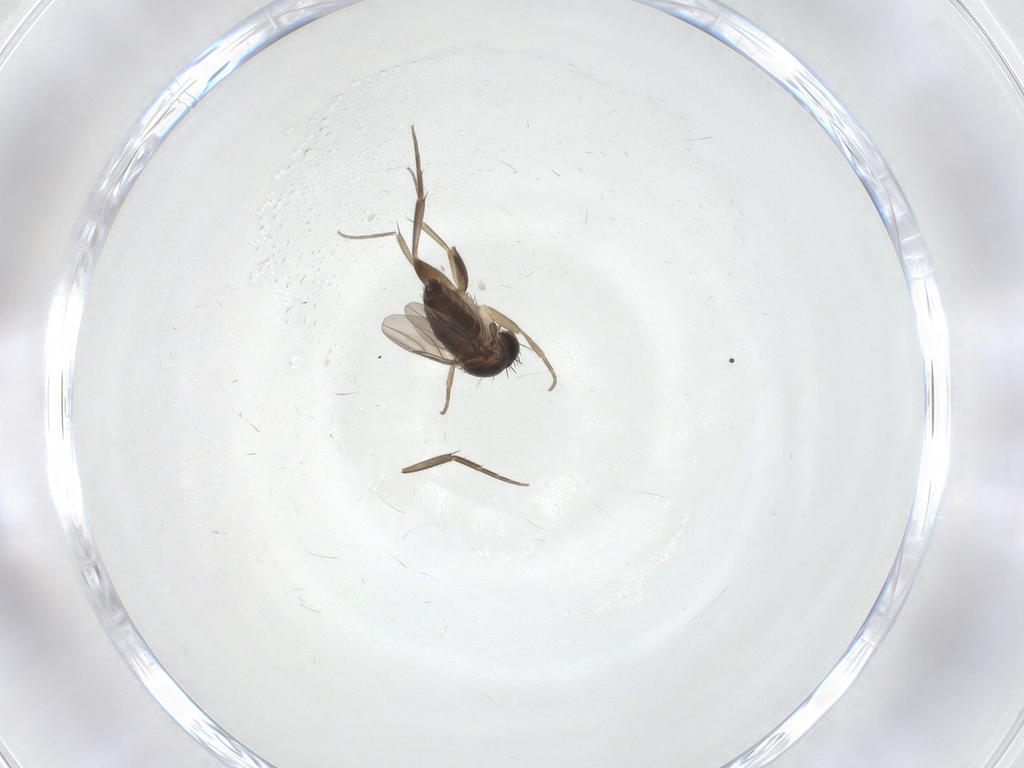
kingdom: Animalia
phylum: Arthropoda
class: Insecta
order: Diptera
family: Phoridae
